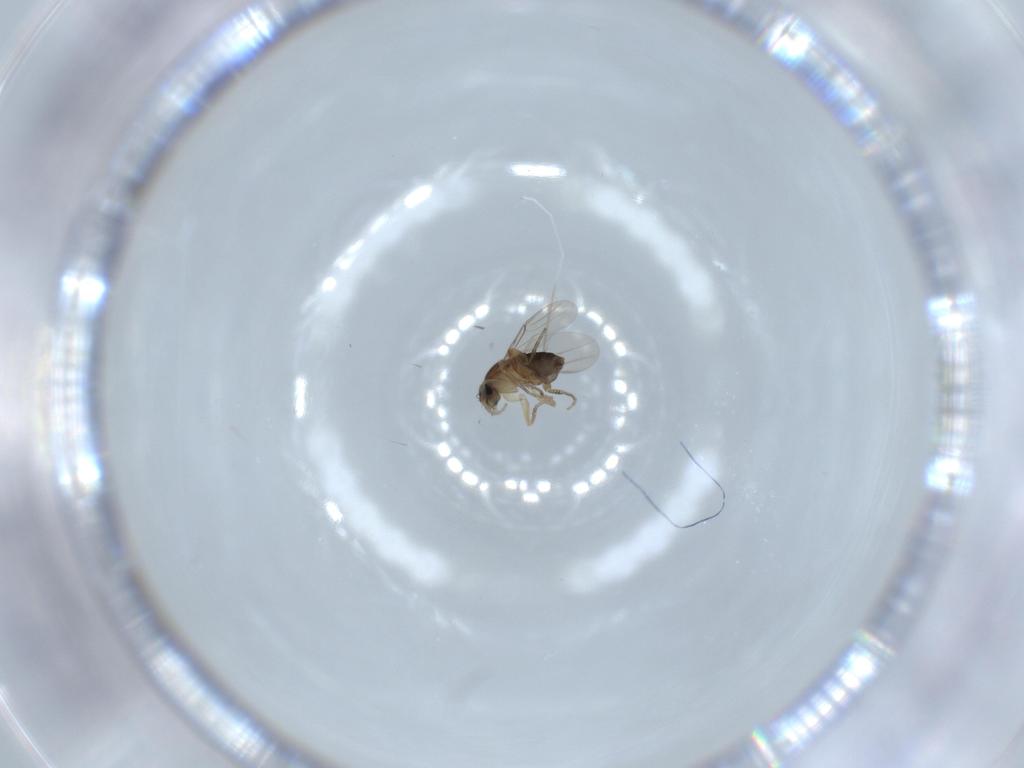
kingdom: Animalia
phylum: Arthropoda
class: Insecta
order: Diptera
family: Phoridae
